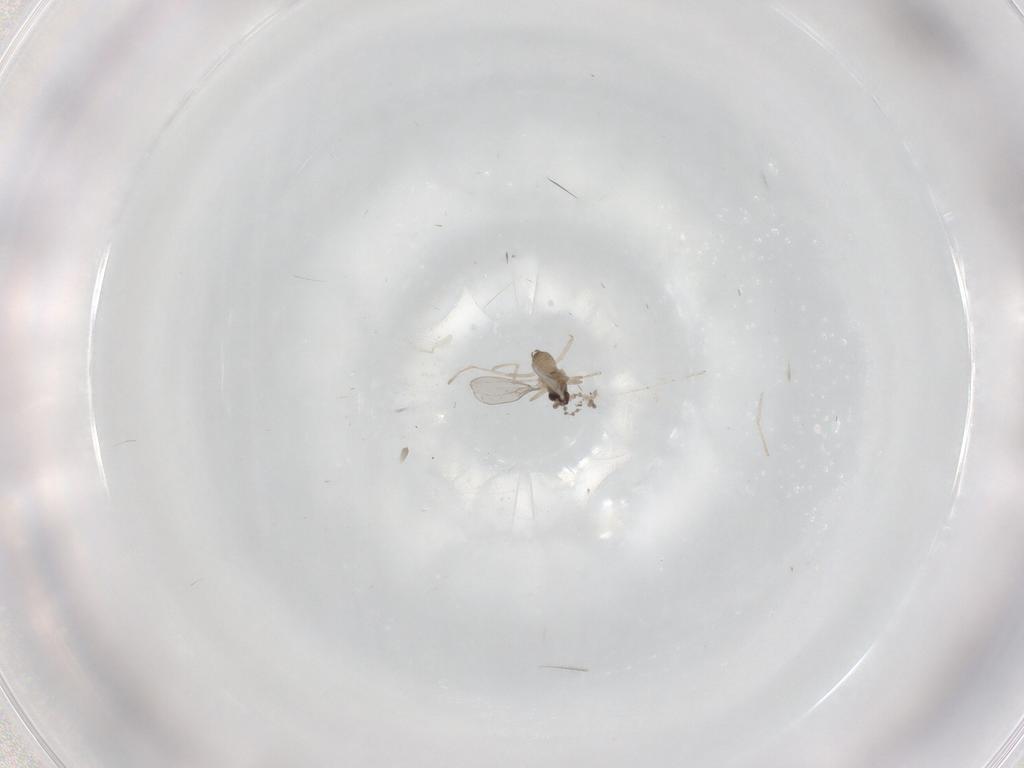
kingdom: Animalia
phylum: Arthropoda
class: Insecta
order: Diptera
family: Cecidomyiidae
